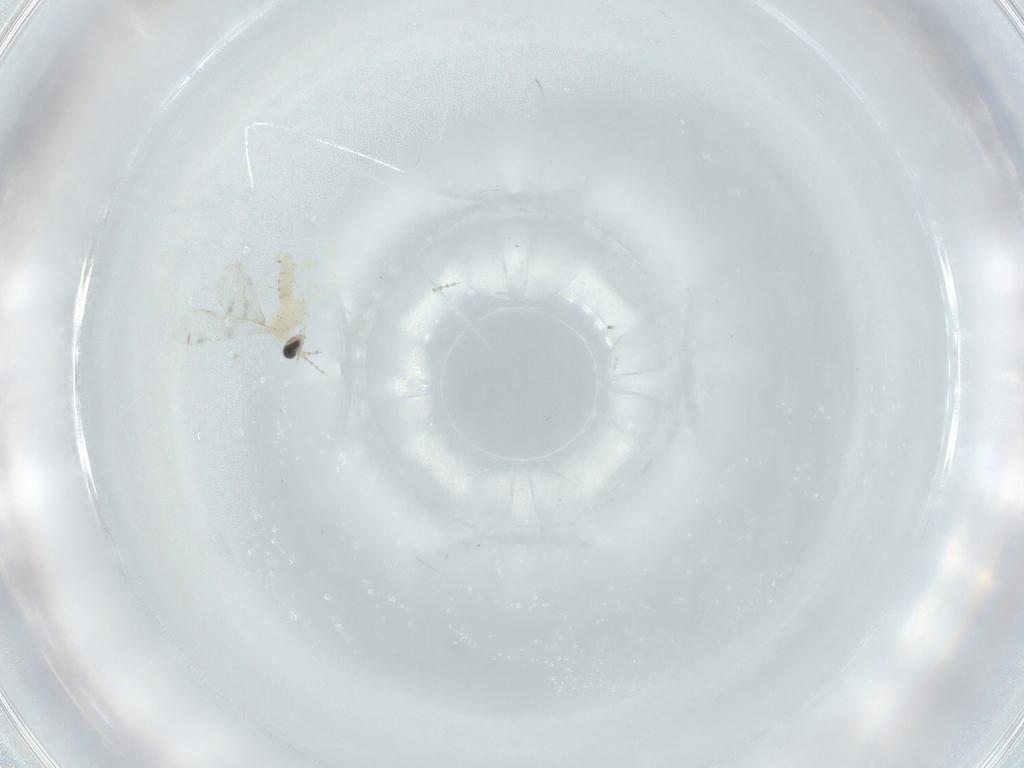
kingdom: Animalia
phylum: Arthropoda
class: Insecta
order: Diptera
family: Cecidomyiidae
